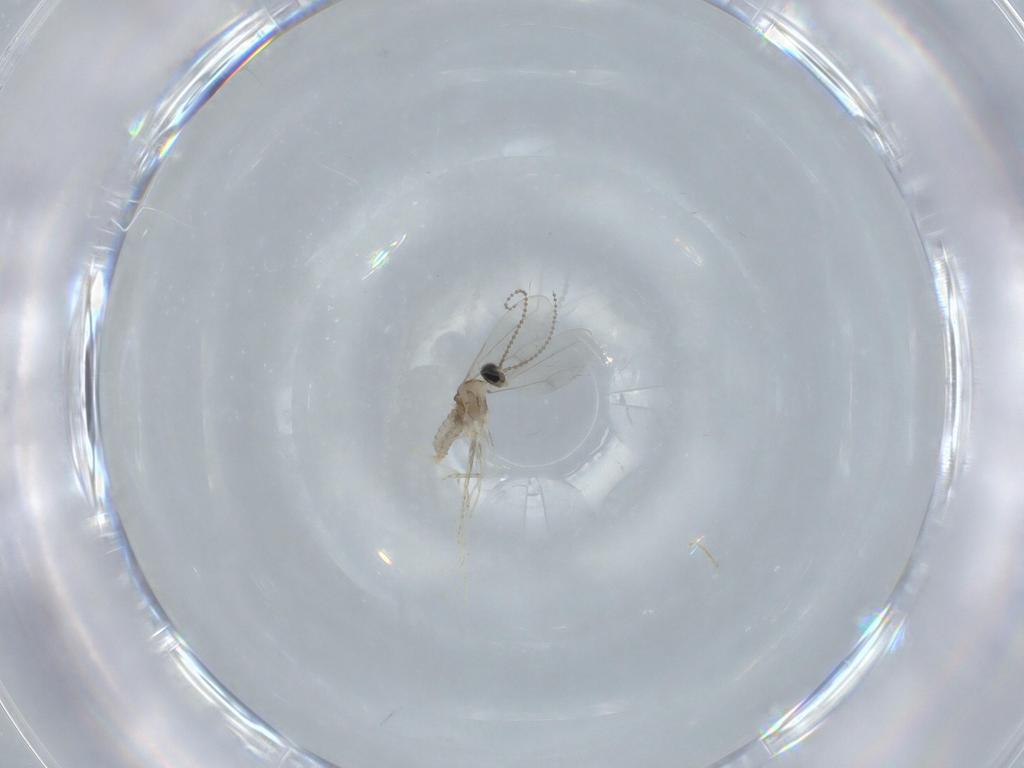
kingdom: Animalia
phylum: Arthropoda
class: Insecta
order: Diptera
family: Cecidomyiidae
